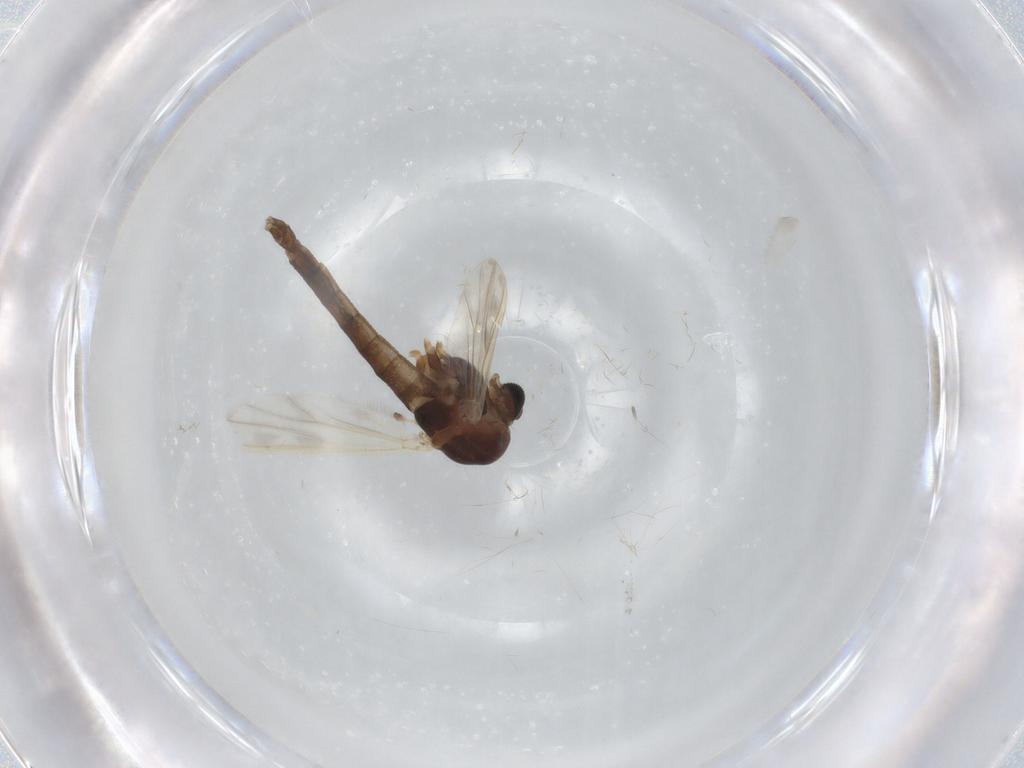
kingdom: Animalia
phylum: Arthropoda
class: Insecta
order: Diptera
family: Chironomidae
